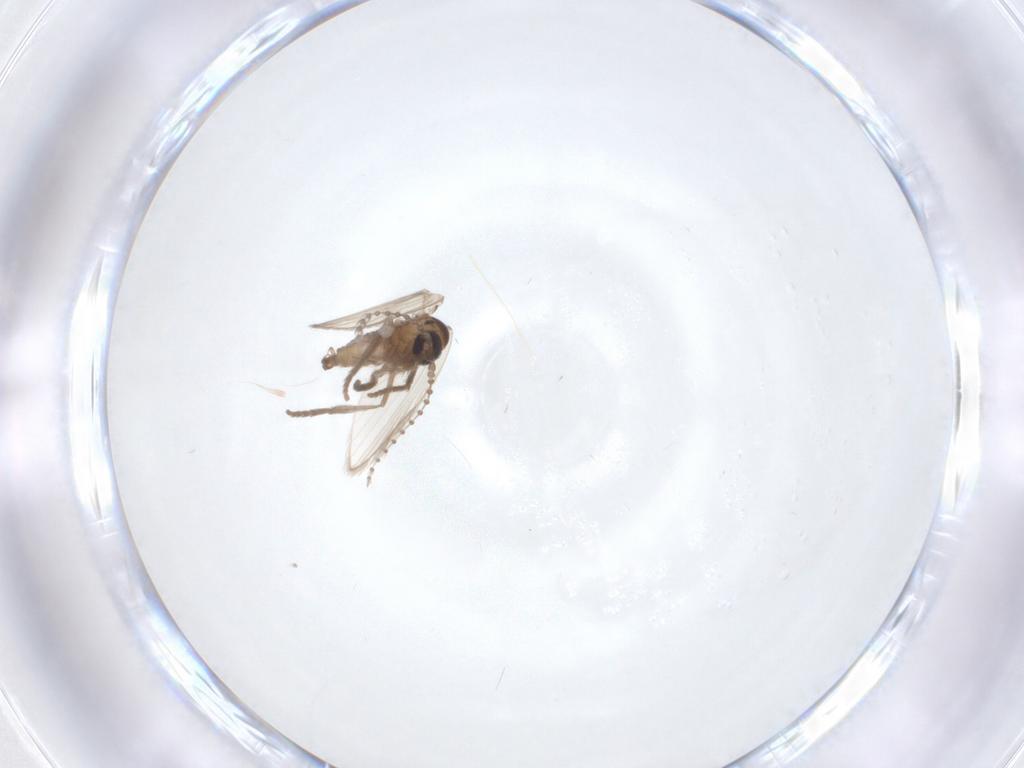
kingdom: Animalia
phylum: Arthropoda
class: Insecta
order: Diptera
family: Psychodidae
